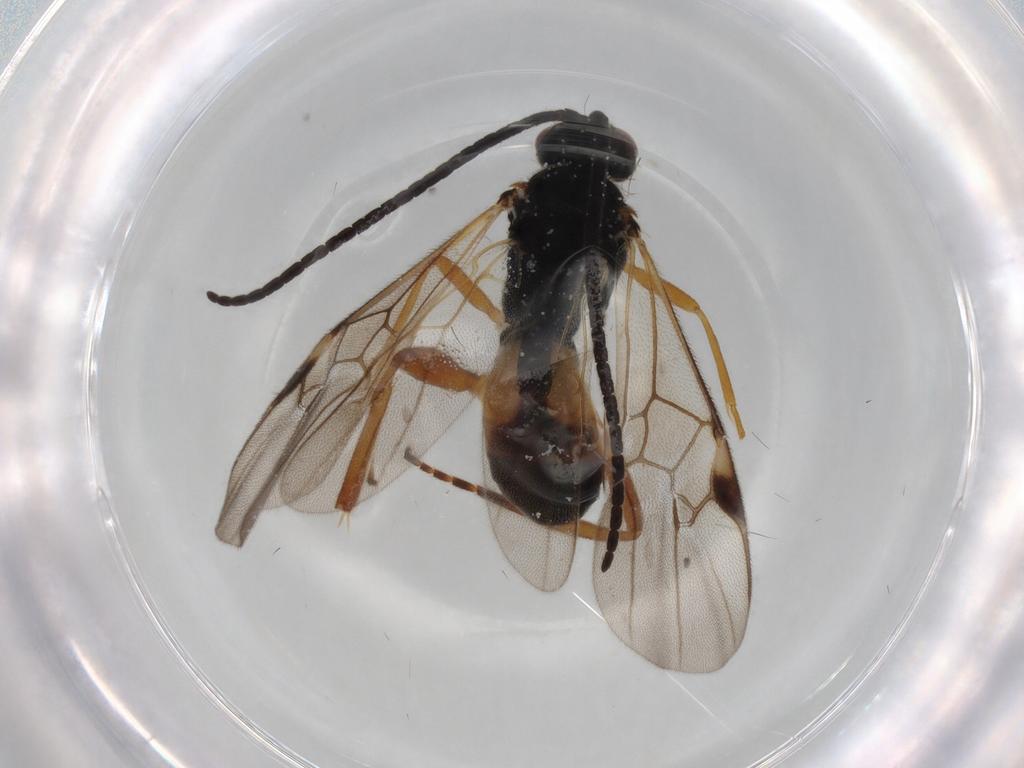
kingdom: Animalia
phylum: Arthropoda
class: Insecta
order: Hymenoptera
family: Braconidae
